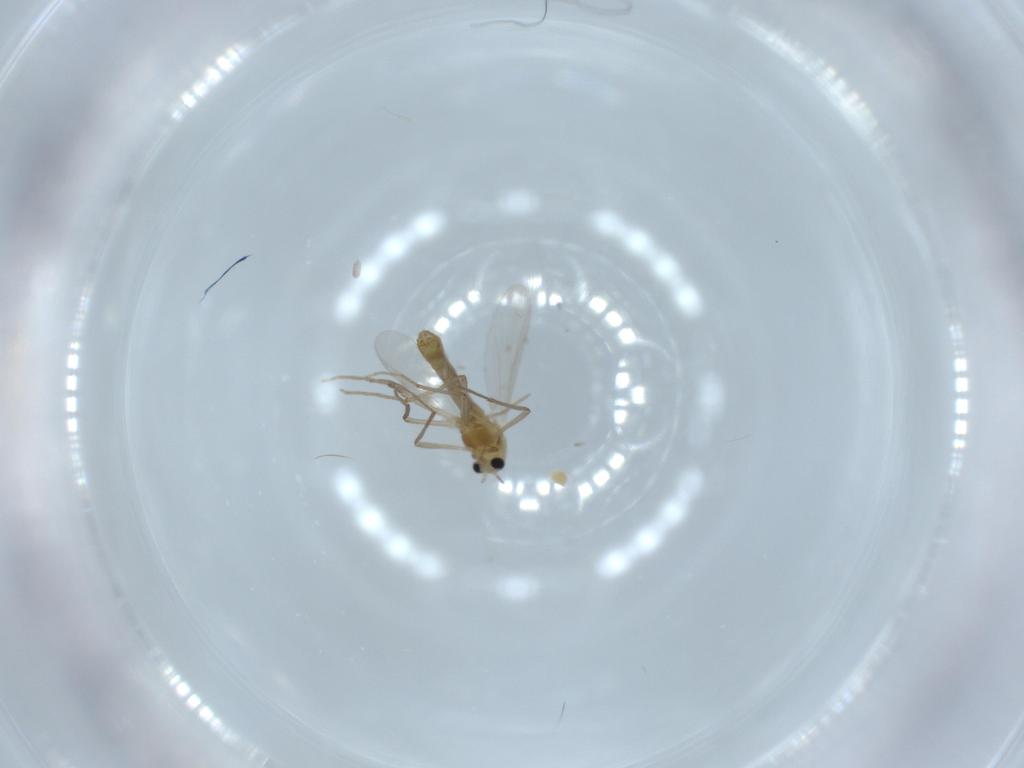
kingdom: Animalia
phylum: Arthropoda
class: Insecta
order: Diptera
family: Chironomidae
